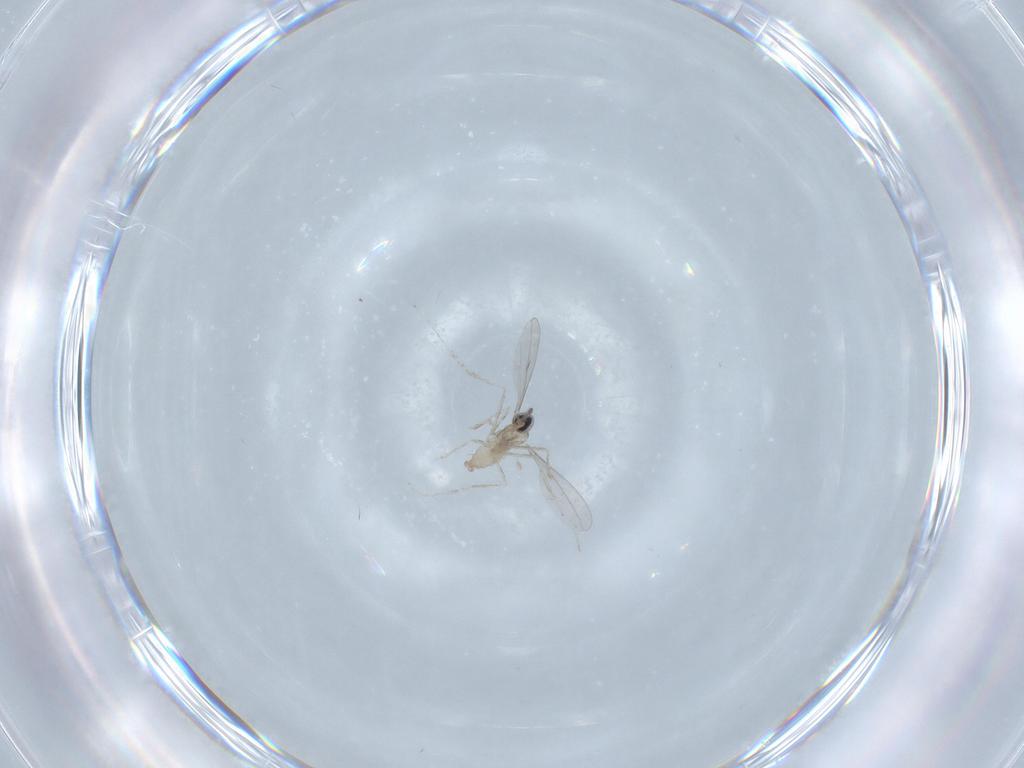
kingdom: Animalia
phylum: Arthropoda
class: Insecta
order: Diptera
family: Cecidomyiidae
